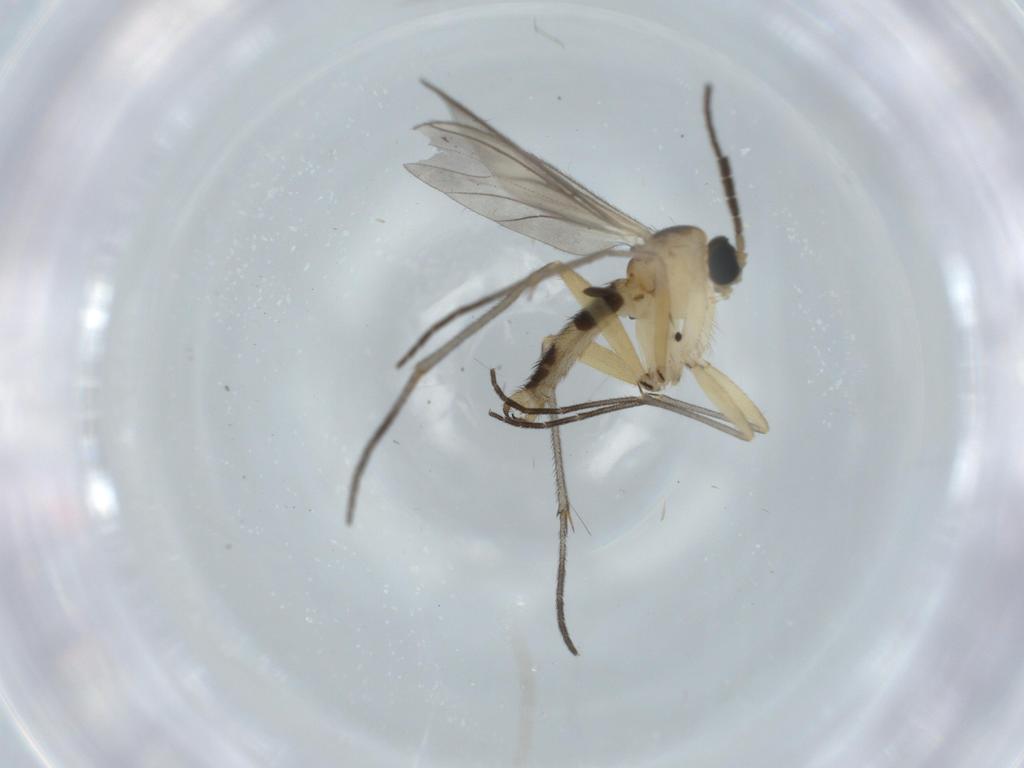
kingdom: Animalia
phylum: Arthropoda
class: Insecta
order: Diptera
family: Sciaridae
